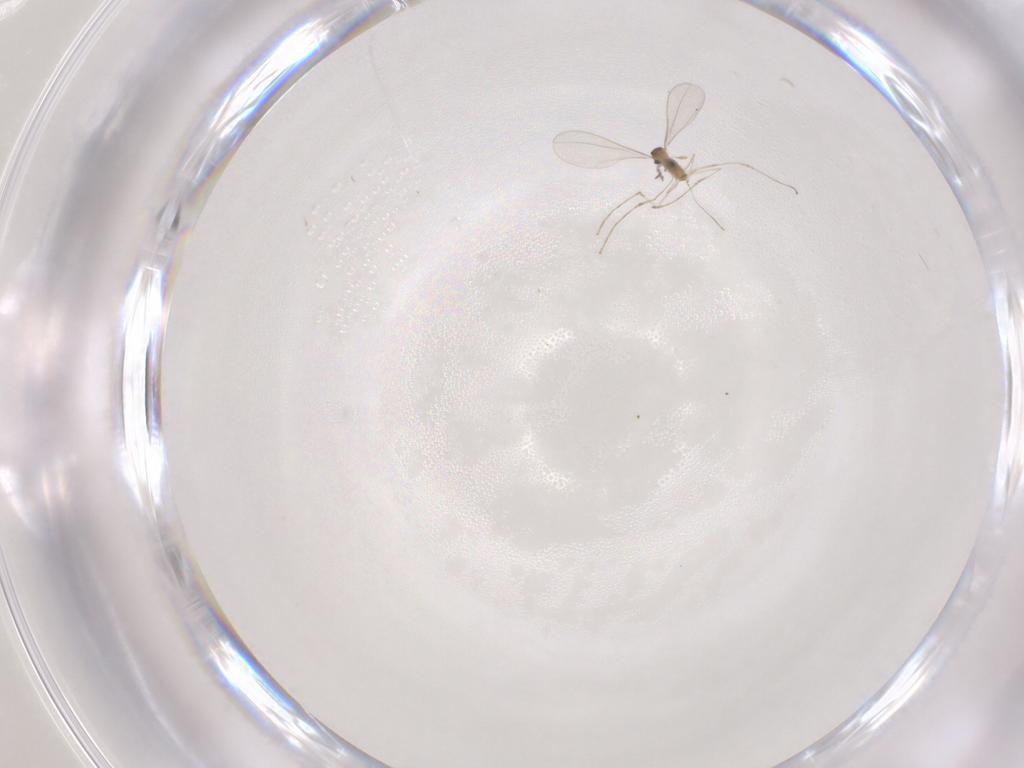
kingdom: Animalia
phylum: Arthropoda
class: Insecta
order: Diptera
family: Cecidomyiidae
